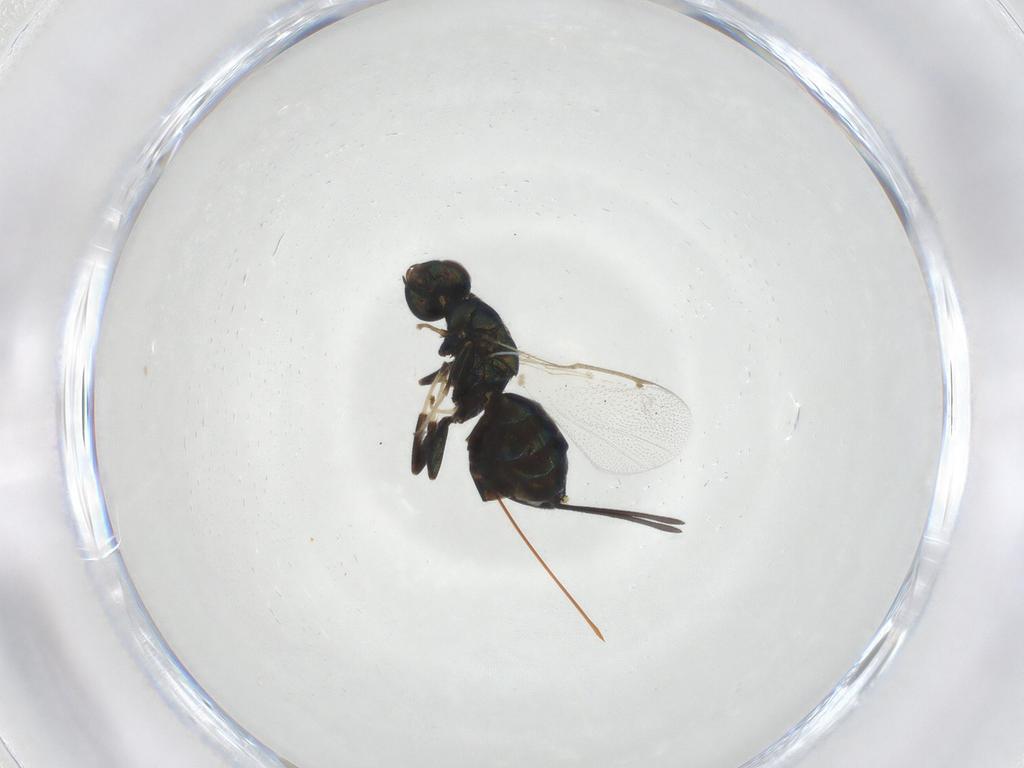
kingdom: Animalia
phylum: Arthropoda
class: Insecta
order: Hymenoptera
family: Torymidae
